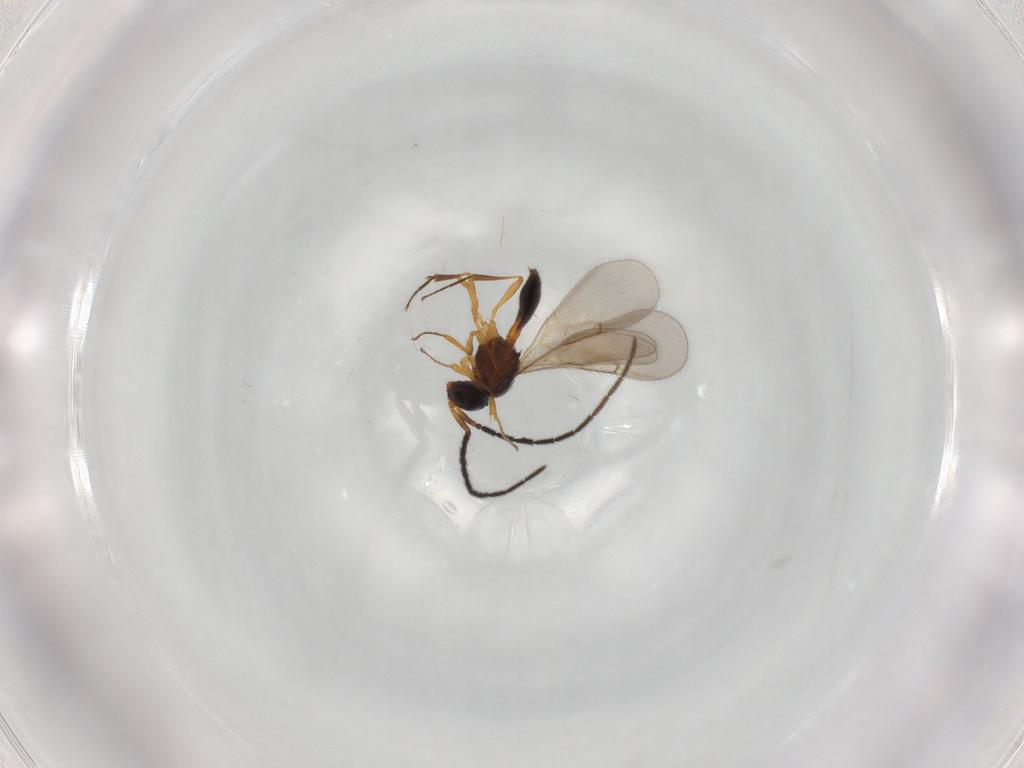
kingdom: Animalia
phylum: Arthropoda
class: Insecta
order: Hymenoptera
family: Scelionidae
